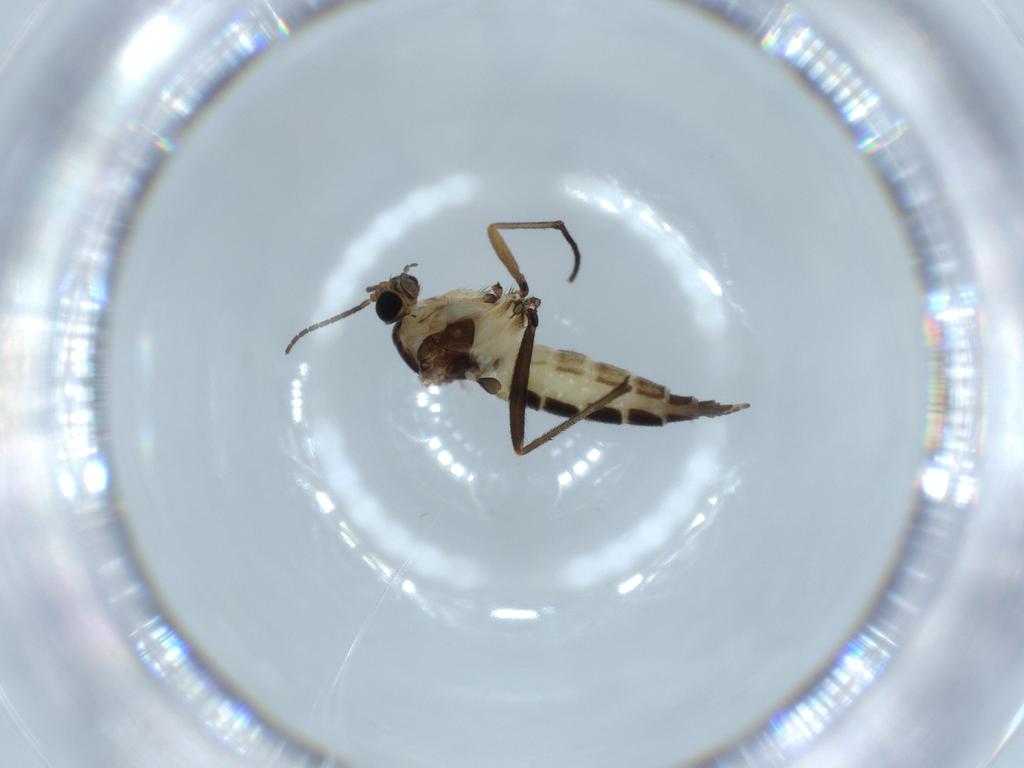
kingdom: Animalia
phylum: Arthropoda
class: Insecta
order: Diptera
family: Sciaridae
